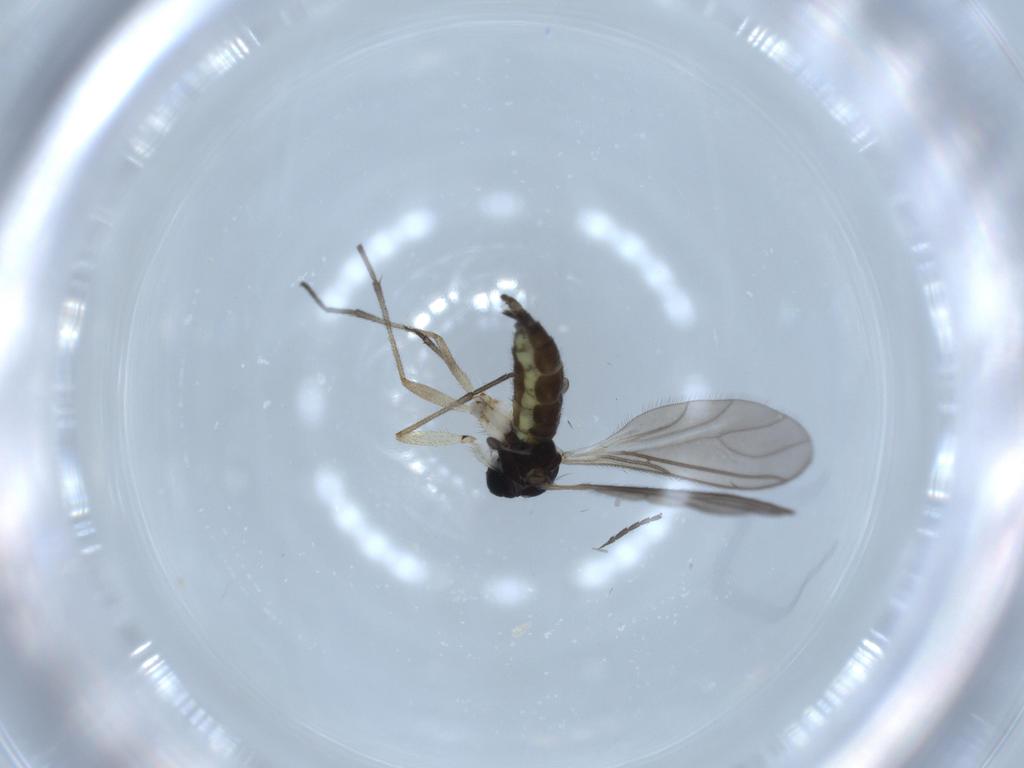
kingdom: Animalia
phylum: Arthropoda
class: Insecta
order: Diptera
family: Sciaridae
